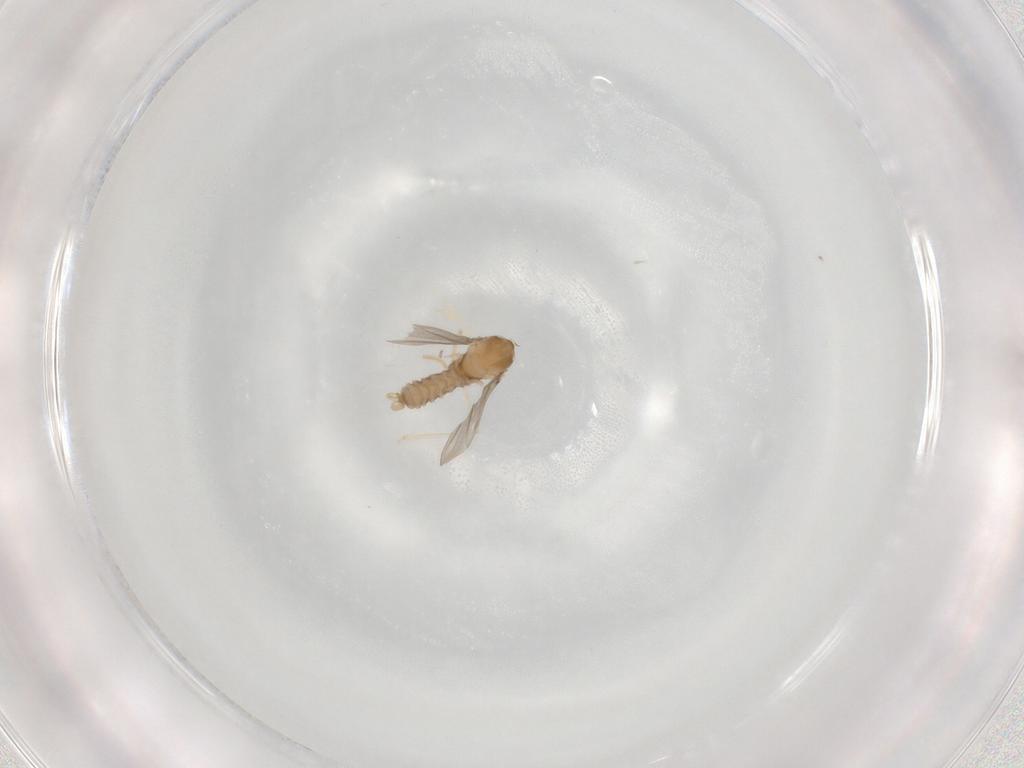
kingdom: Animalia
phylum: Arthropoda
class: Insecta
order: Diptera
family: Cecidomyiidae
